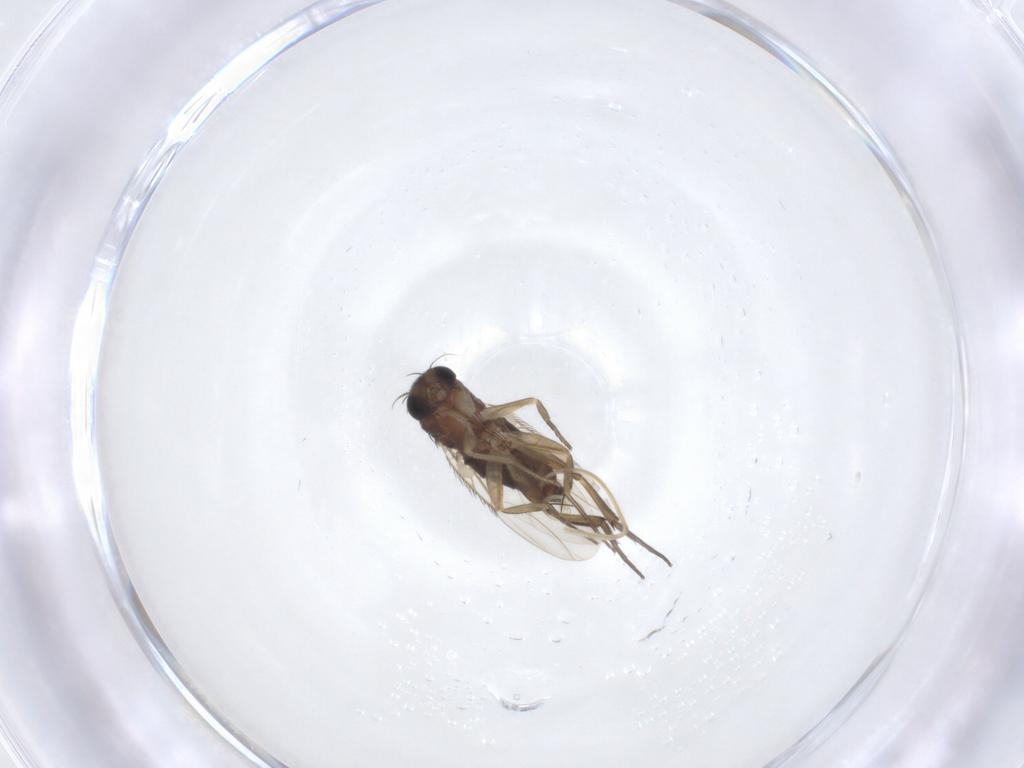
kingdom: Animalia
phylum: Arthropoda
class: Insecta
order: Diptera
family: Phoridae
